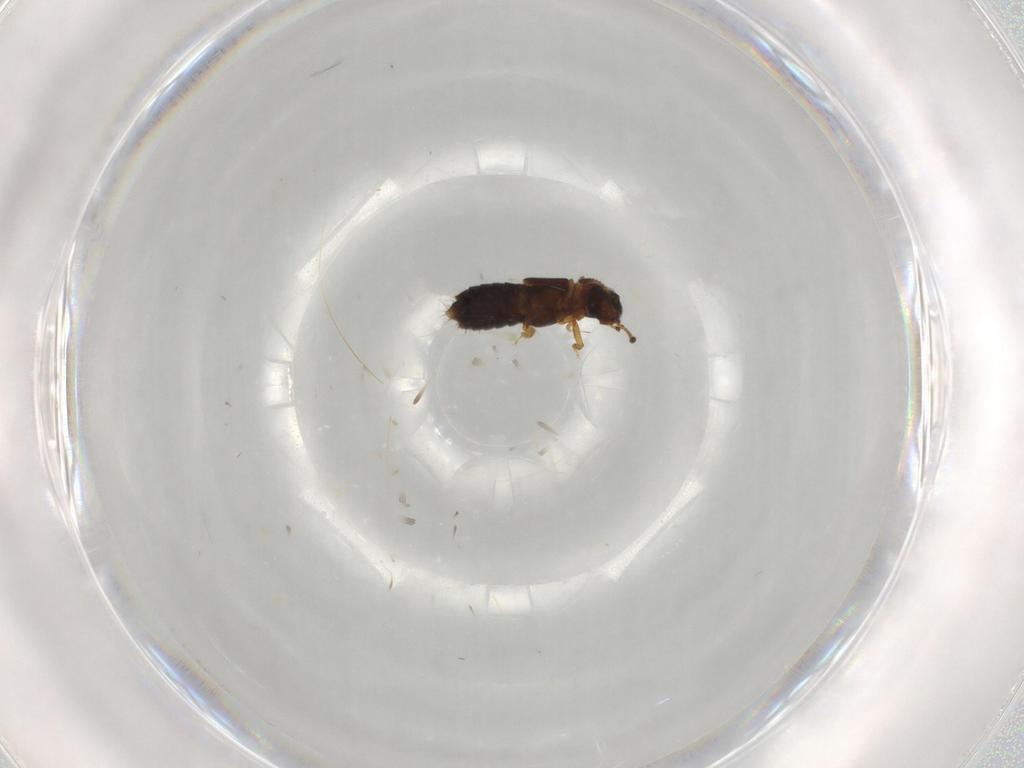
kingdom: Animalia
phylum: Arthropoda
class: Insecta
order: Coleoptera
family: Staphylinidae
